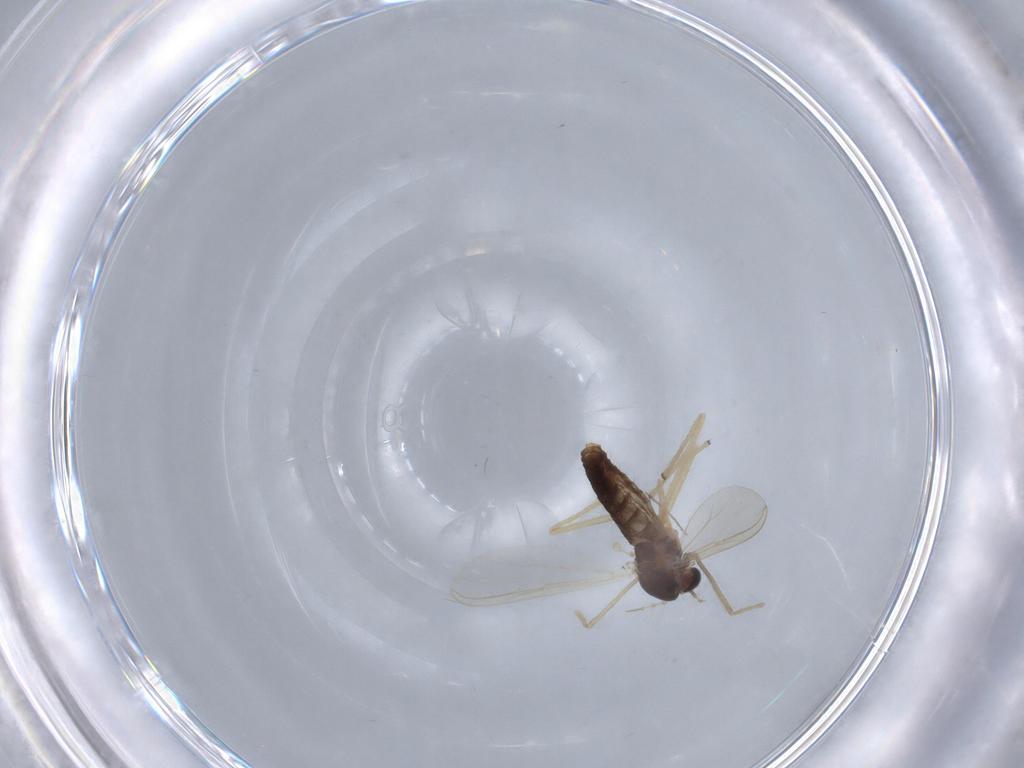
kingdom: Animalia
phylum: Arthropoda
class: Insecta
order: Diptera
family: Chironomidae
